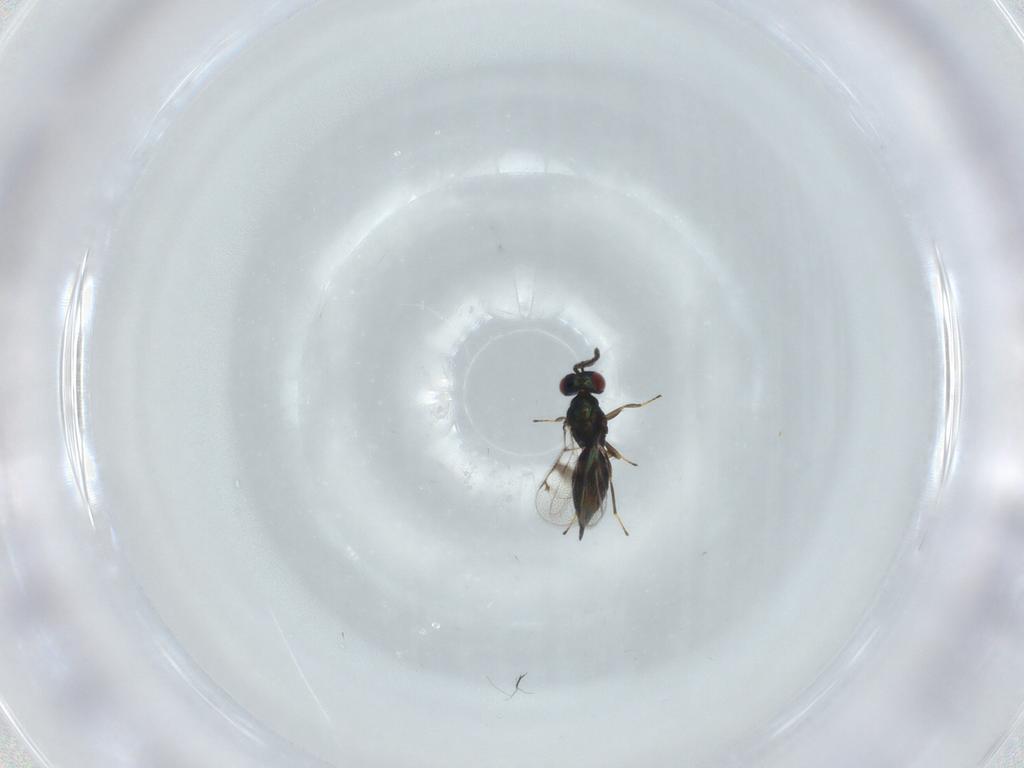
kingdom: Animalia
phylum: Arthropoda
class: Insecta
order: Hymenoptera
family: Eulophidae
